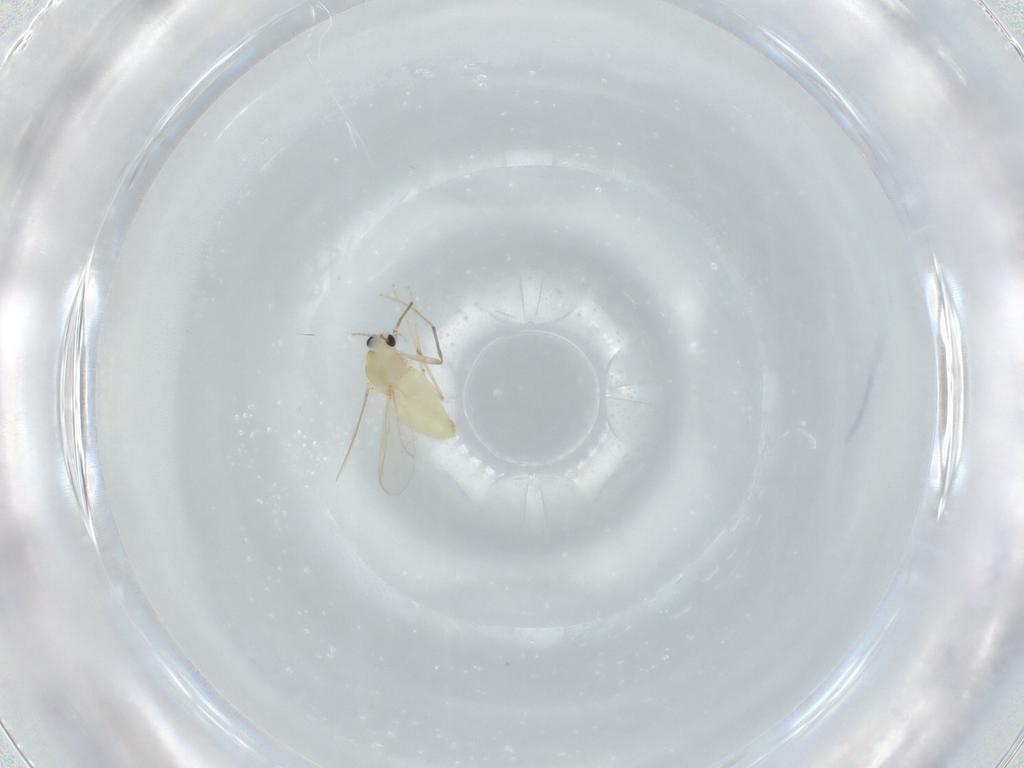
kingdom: Animalia
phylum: Arthropoda
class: Insecta
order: Diptera
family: Chironomidae
